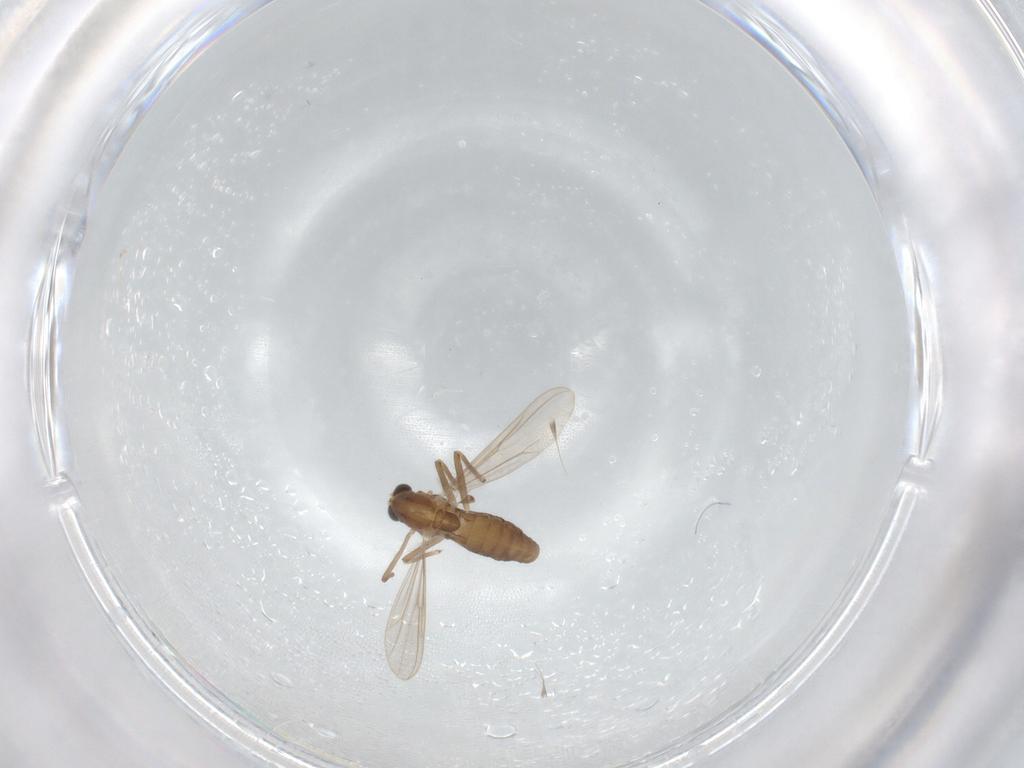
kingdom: Animalia
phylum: Arthropoda
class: Insecta
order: Diptera
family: Chironomidae
